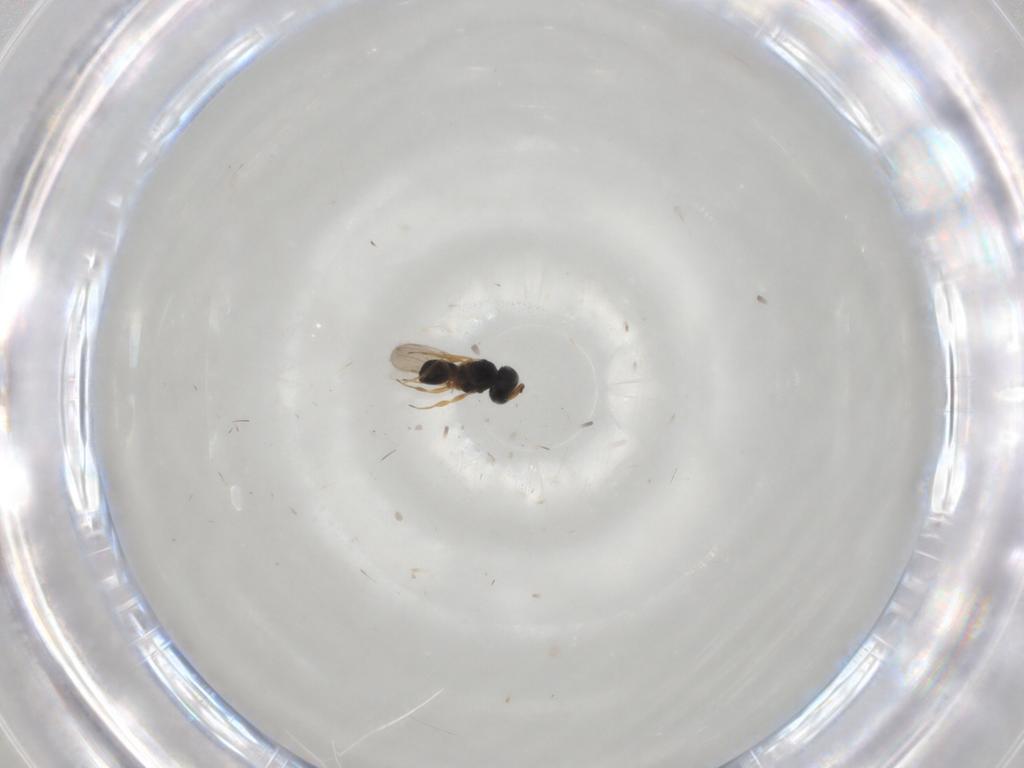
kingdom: Animalia
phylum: Arthropoda
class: Insecta
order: Hymenoptera
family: Scelionidae
